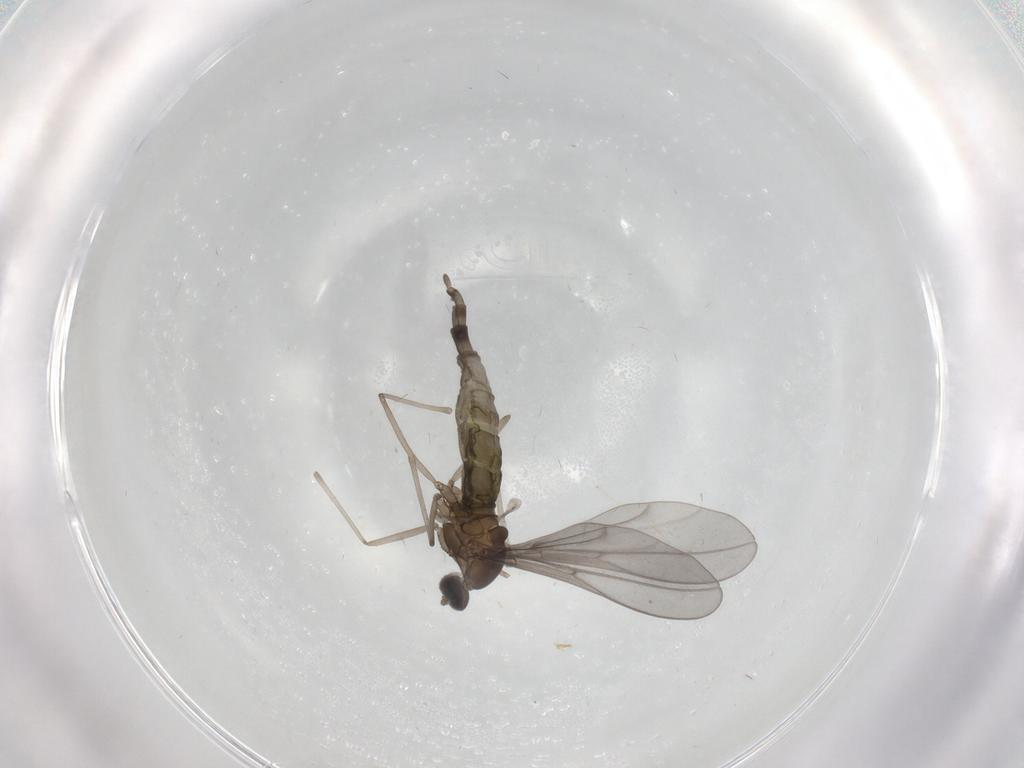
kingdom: Animalia
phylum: Arthropoda
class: Insecta
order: Diptera
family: Cecidomyiidae
